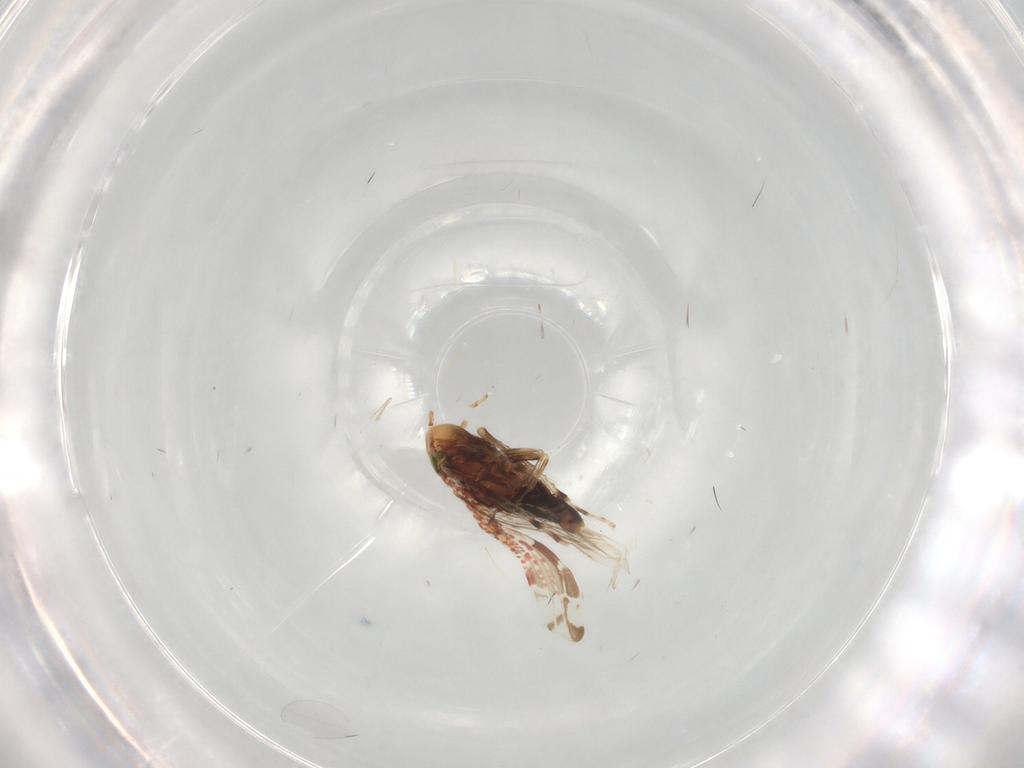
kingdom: Animalia
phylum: Arthropoda
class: Insecta
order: Hemiptera
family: Cicadellidae
